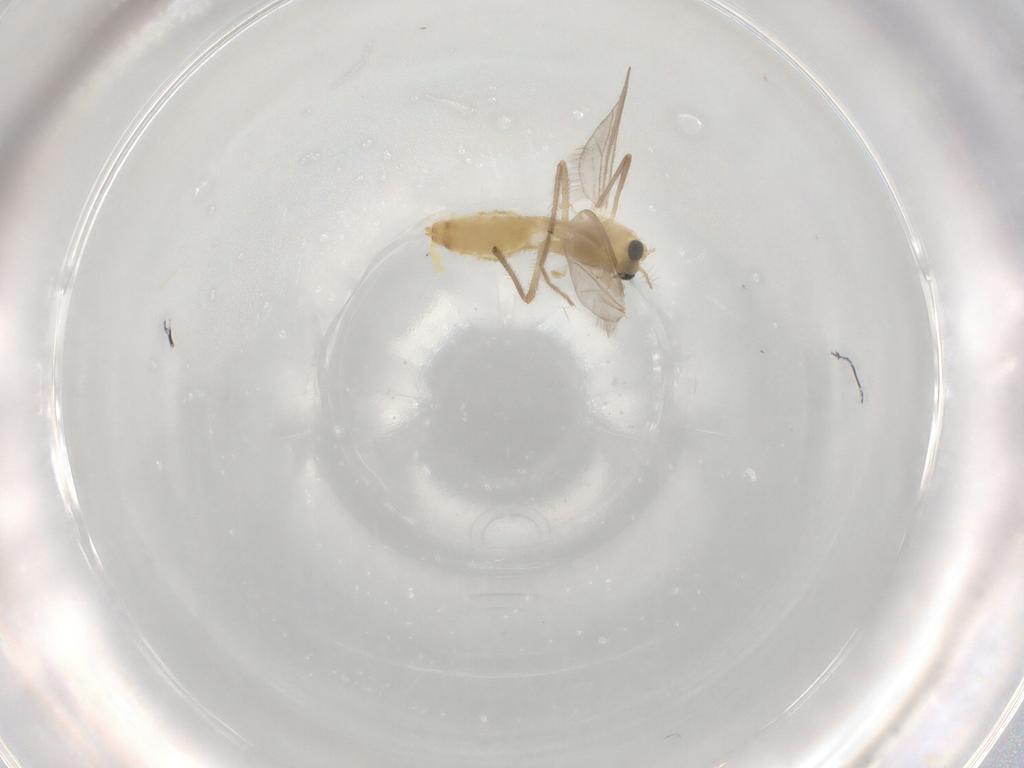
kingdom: Animalia
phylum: Arthropoda
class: Insecta
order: Diptera
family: Chironomidae
